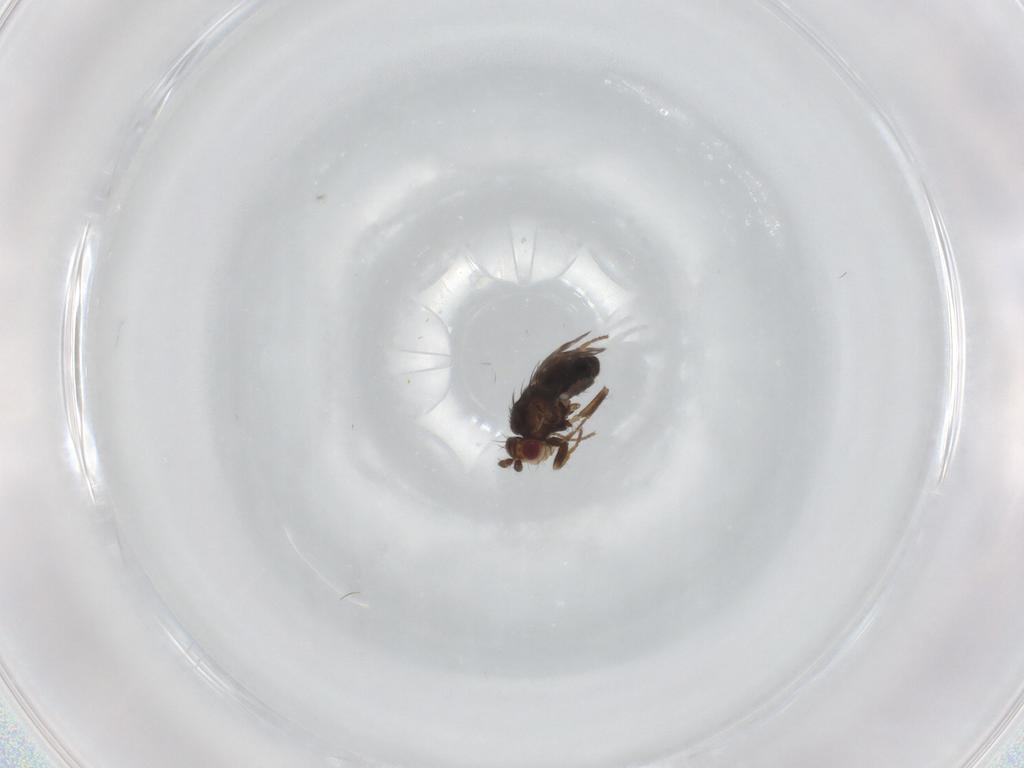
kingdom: Animalia
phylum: Arthropoda
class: Insecta
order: Diptera
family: Sphaeroceridae
